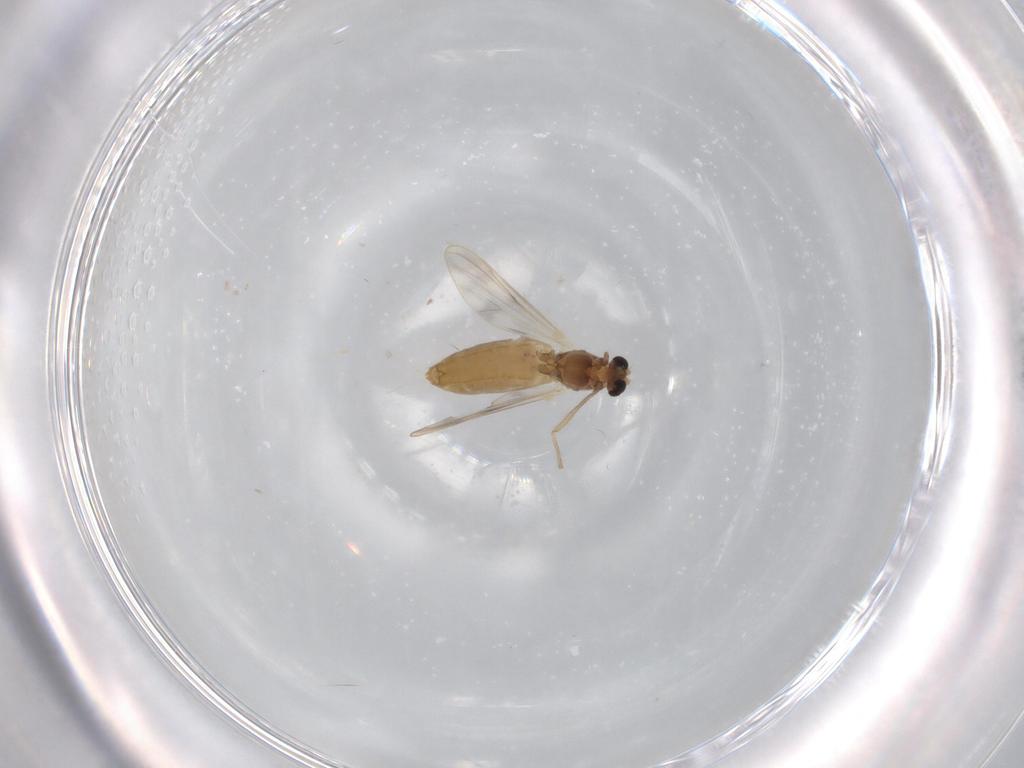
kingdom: Animalia
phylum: Arthropoda
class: Insecta
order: Diptera
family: Chironomidae
